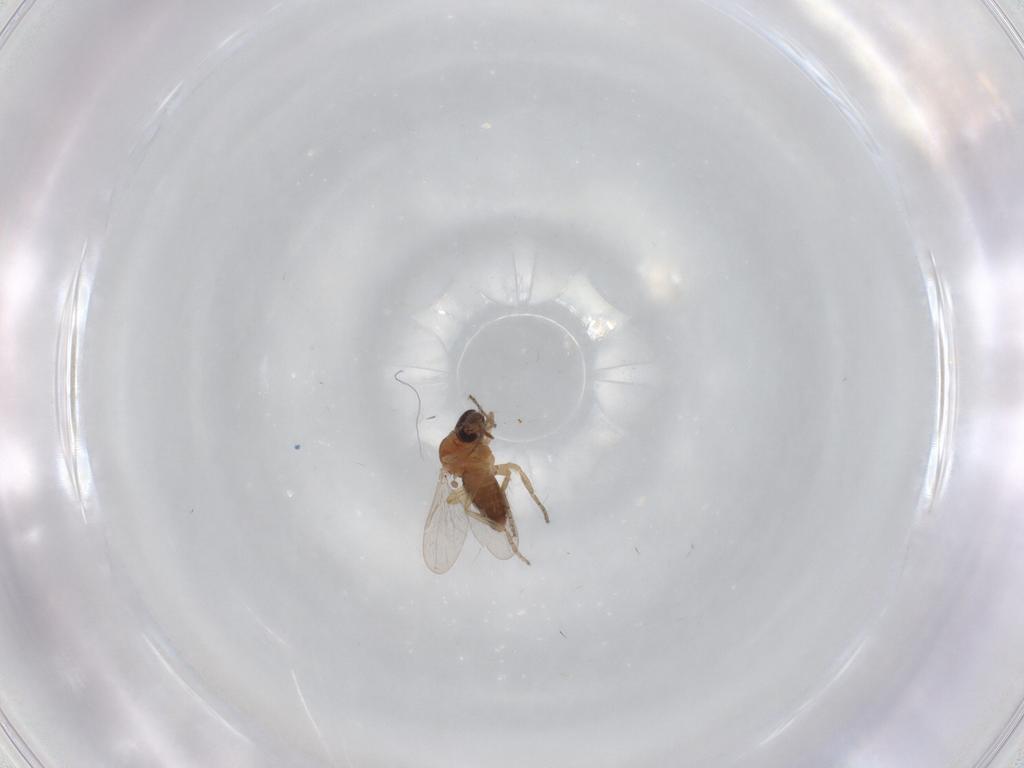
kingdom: Animalia
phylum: Arthropoda
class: Insecta
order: Diptera
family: Ceratopogonidae
